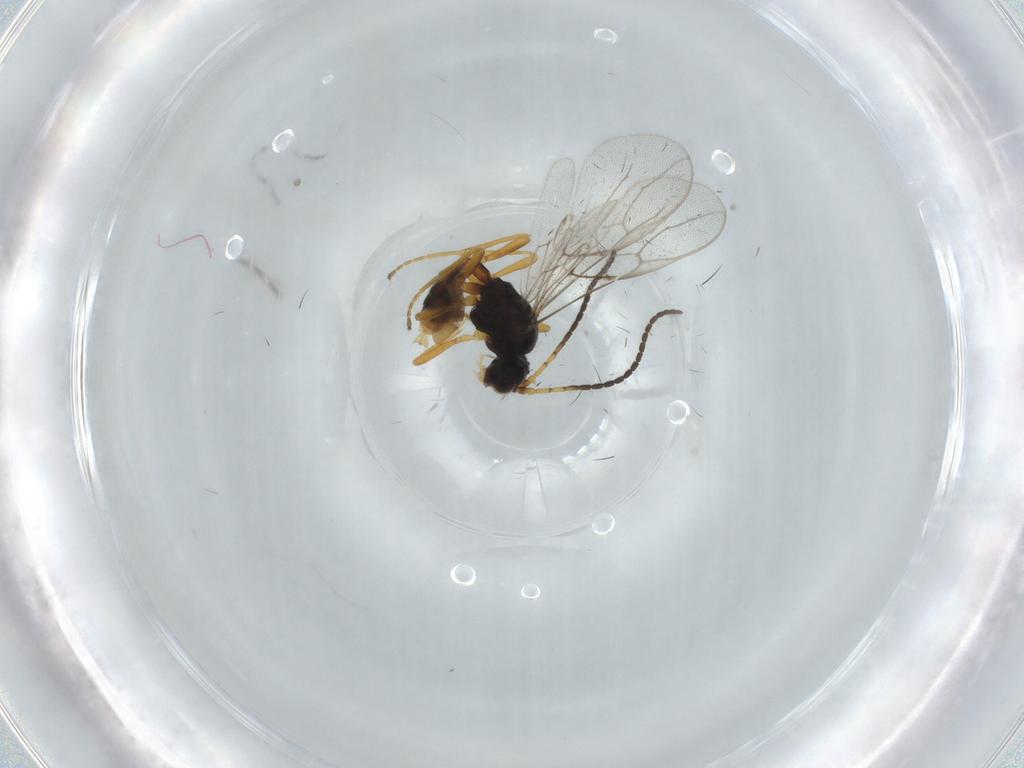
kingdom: Animalia
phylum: Arthropoda
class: Insecta
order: Hymenoptera
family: Braconidae
